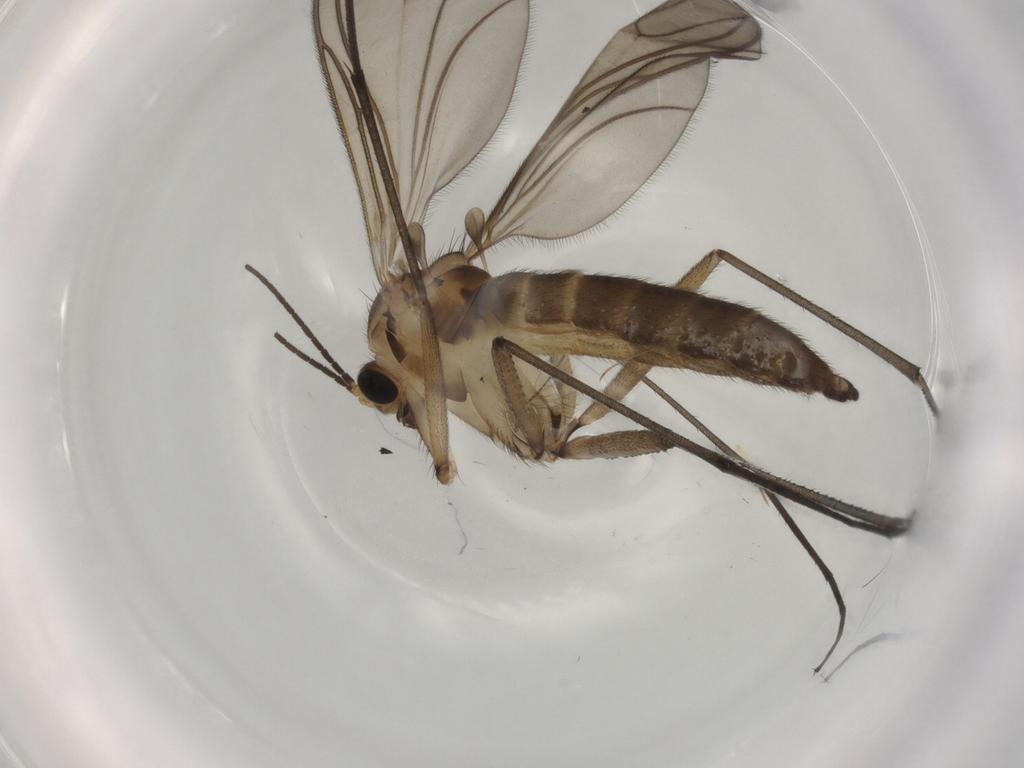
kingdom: Animalia
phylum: Arthropoda
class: Insecta
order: Diptera
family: Sciaridae
